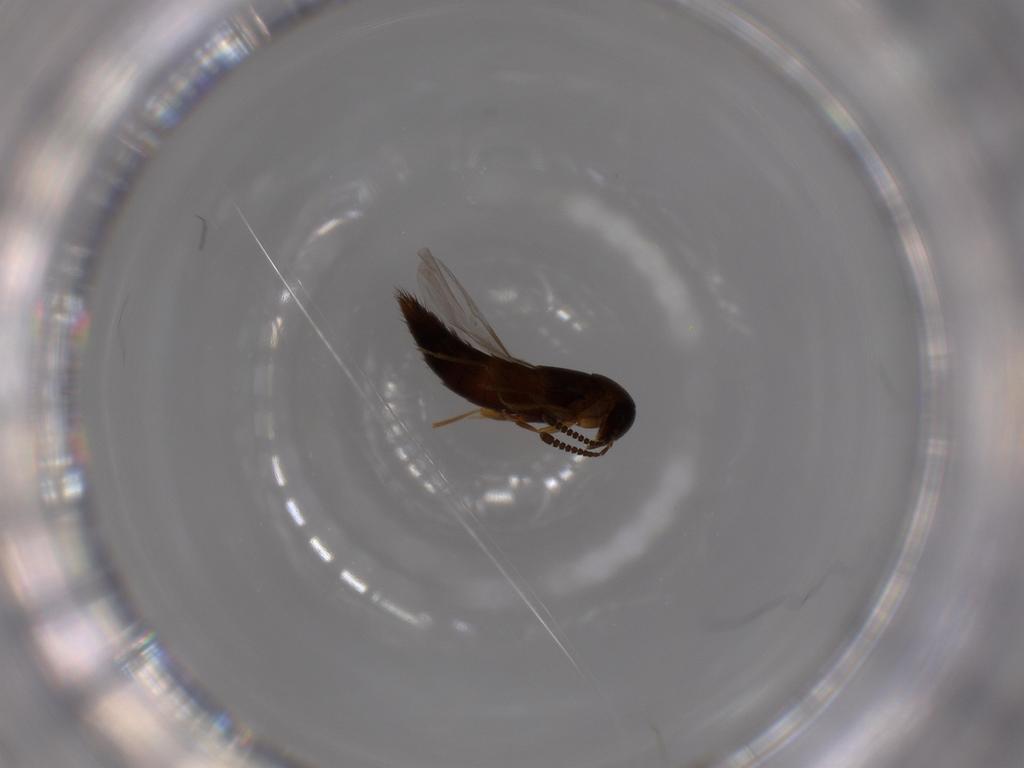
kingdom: Animalia
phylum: Arthropoda
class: Insecta
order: Coleoptera
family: Staphylinidae
